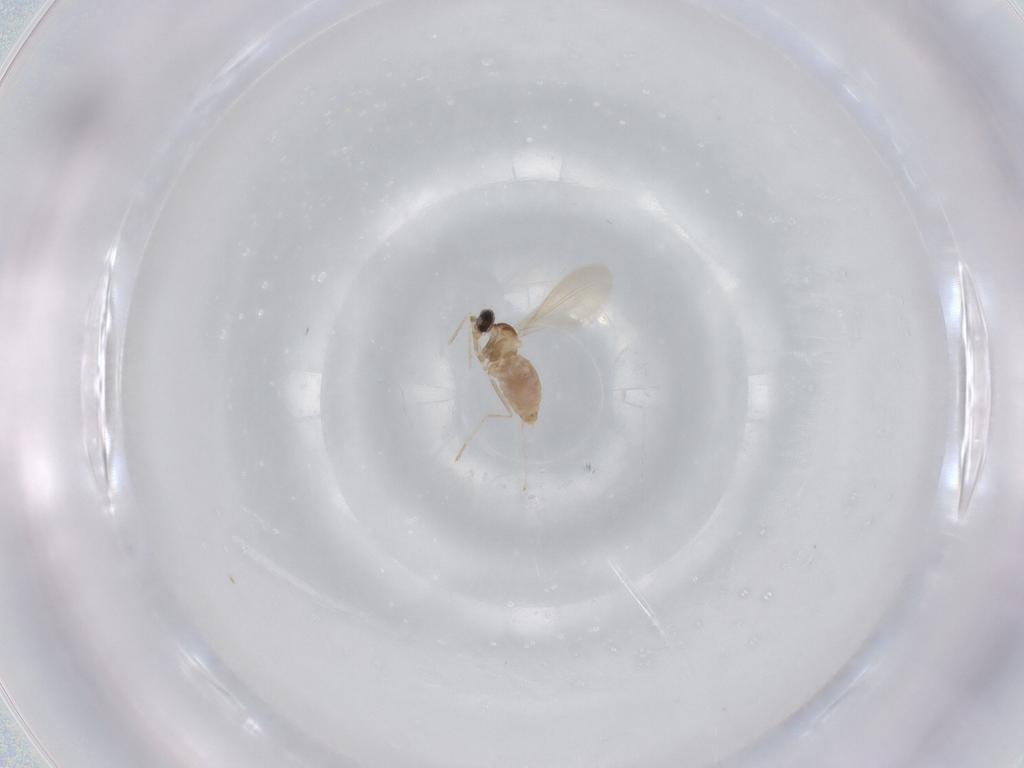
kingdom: Animalia
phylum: Arthropoda
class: Insecta
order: Diptera
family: Cecidomyiidae
